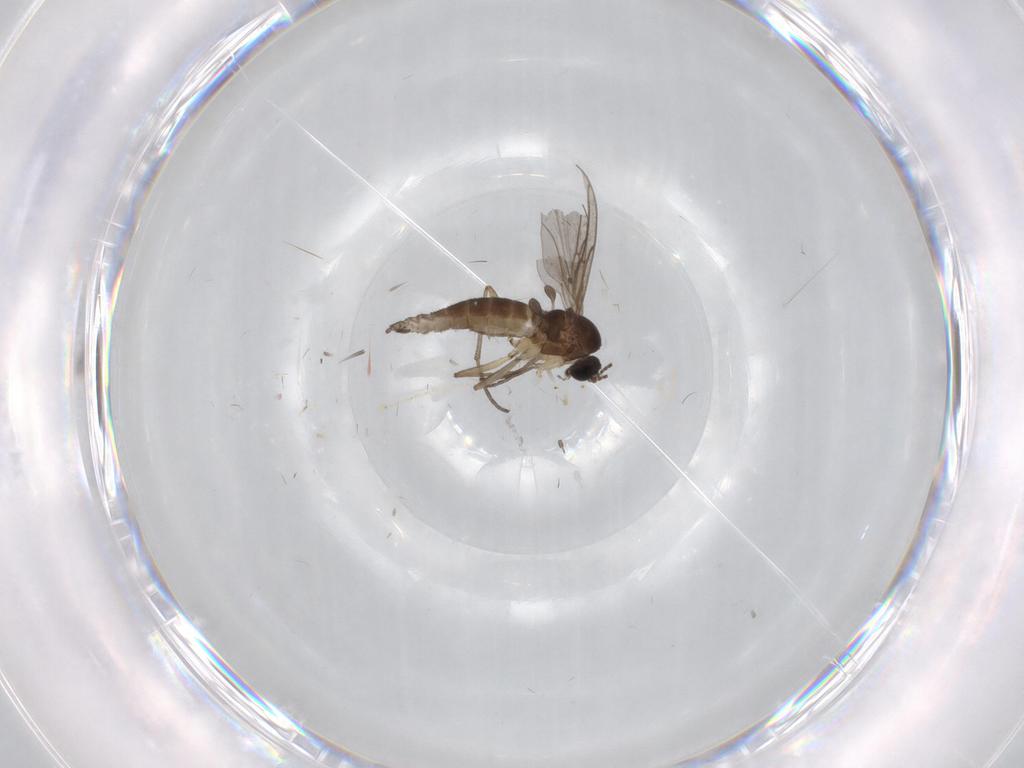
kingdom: Animalia
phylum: Arthropoda
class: Insecta
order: Diptera
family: Sciaridae
